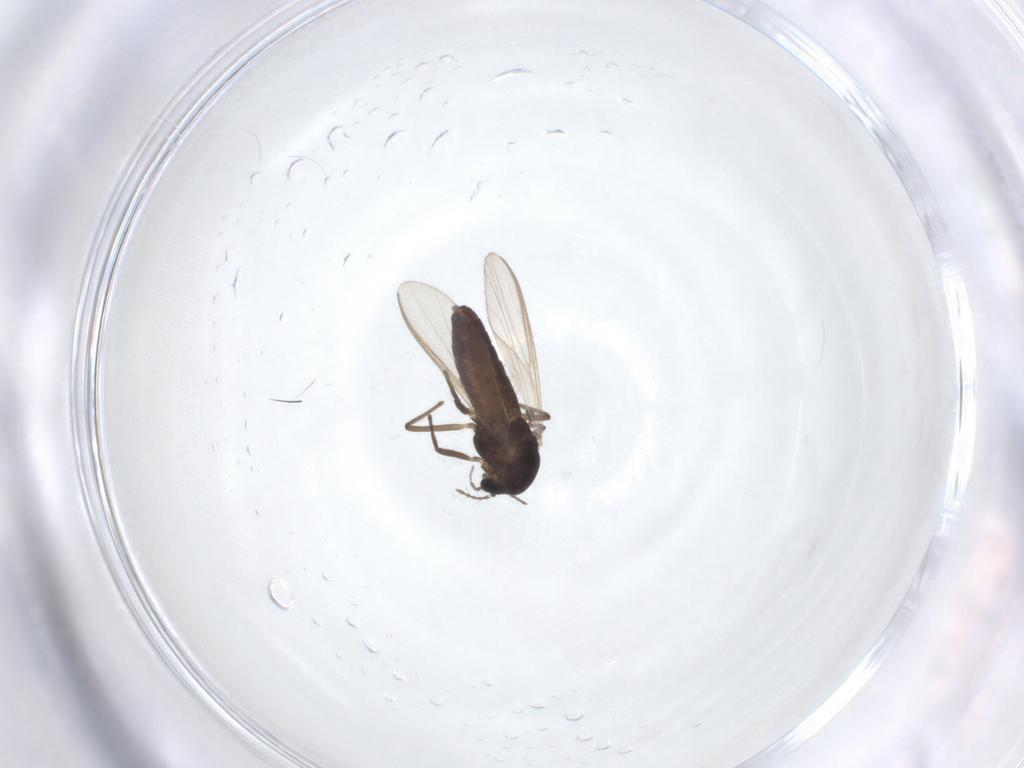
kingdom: Animalia
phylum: Arthropoda
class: Insecta
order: Diptera
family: Chironomidae
